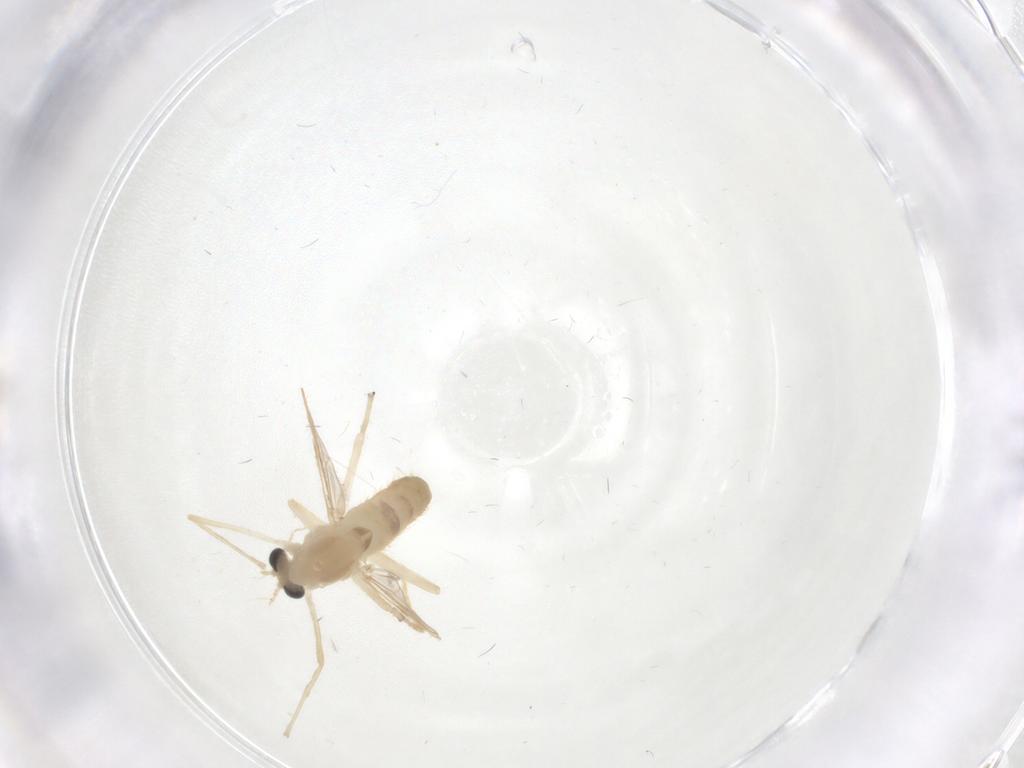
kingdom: Animalia
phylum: Arthropoda
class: Insecta
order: Diptera
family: Chironomidae
